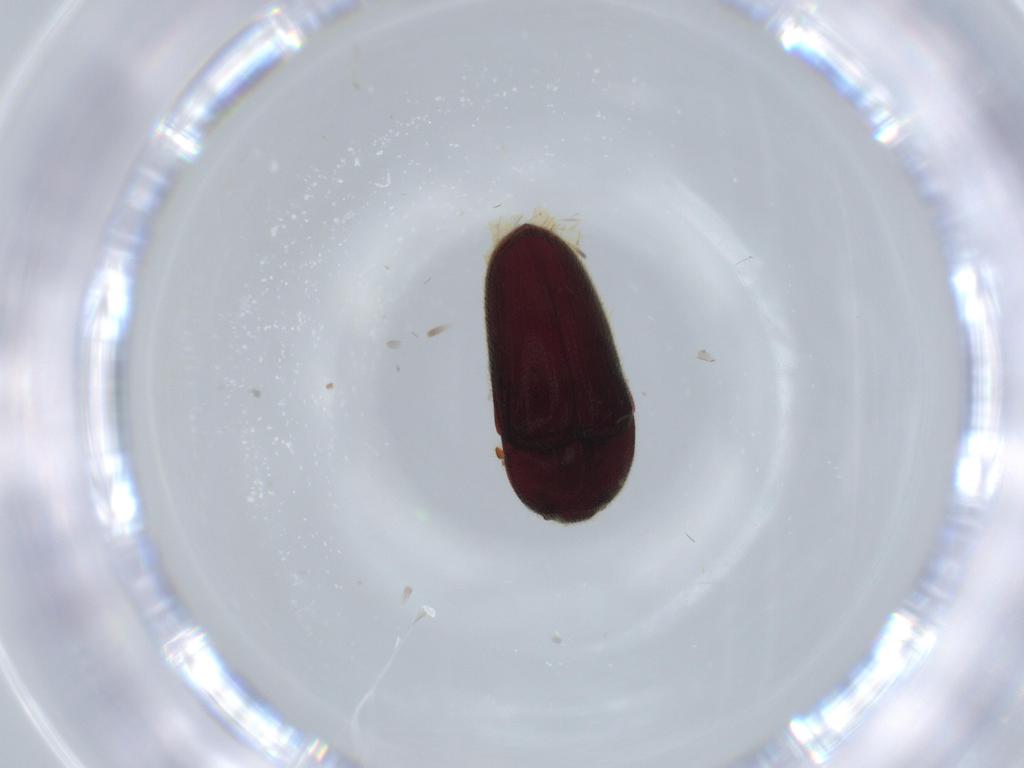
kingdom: Animalia
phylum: Arthropoda
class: Insecta
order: Coleoptera
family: Throscidae
